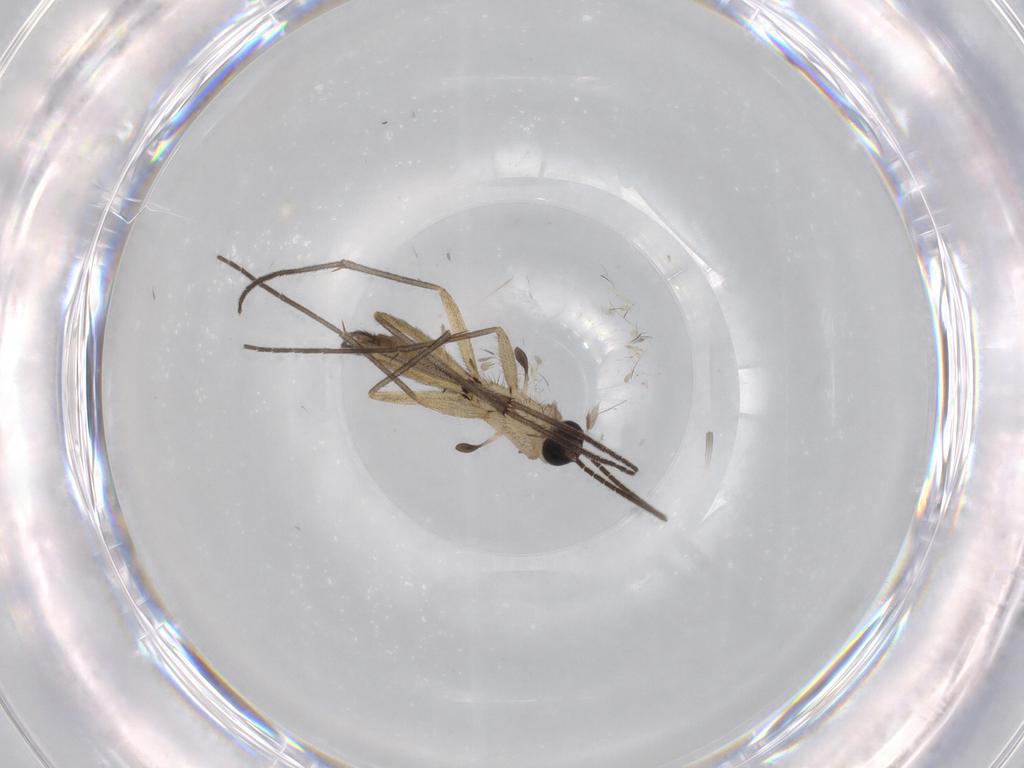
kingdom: Animalia
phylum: Arthropoda
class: Insecta
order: Diptera
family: Sciaridae
